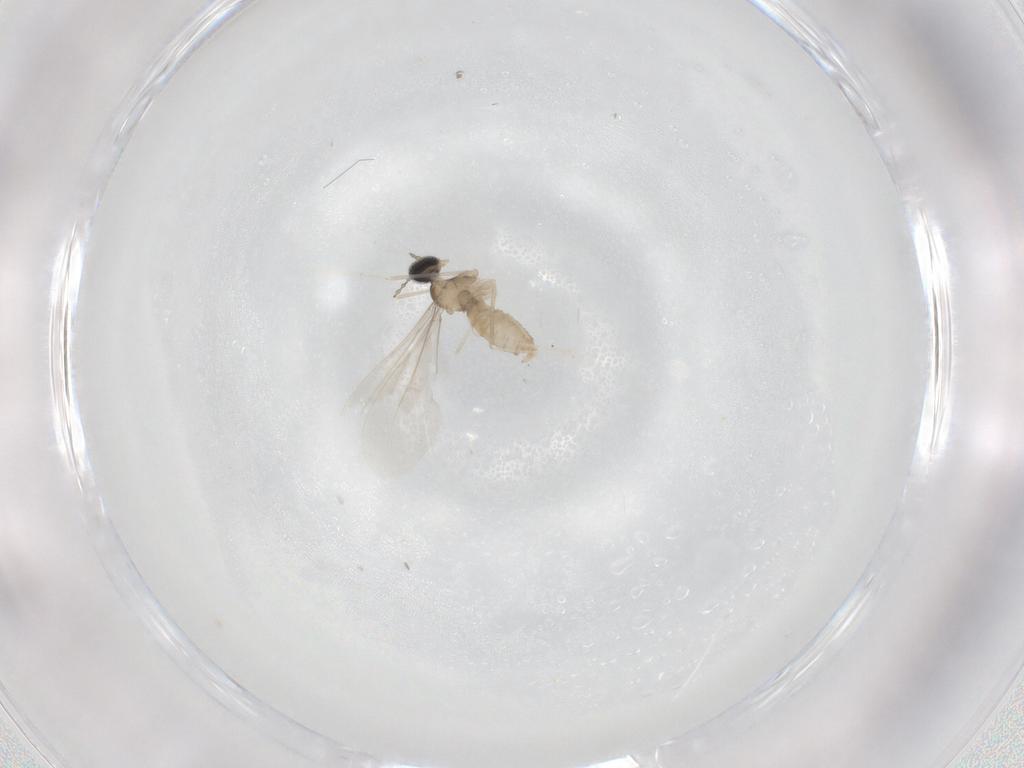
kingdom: Animalia
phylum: Arthropoda
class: Insecta
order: Diptera
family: Cecidomyiidae
